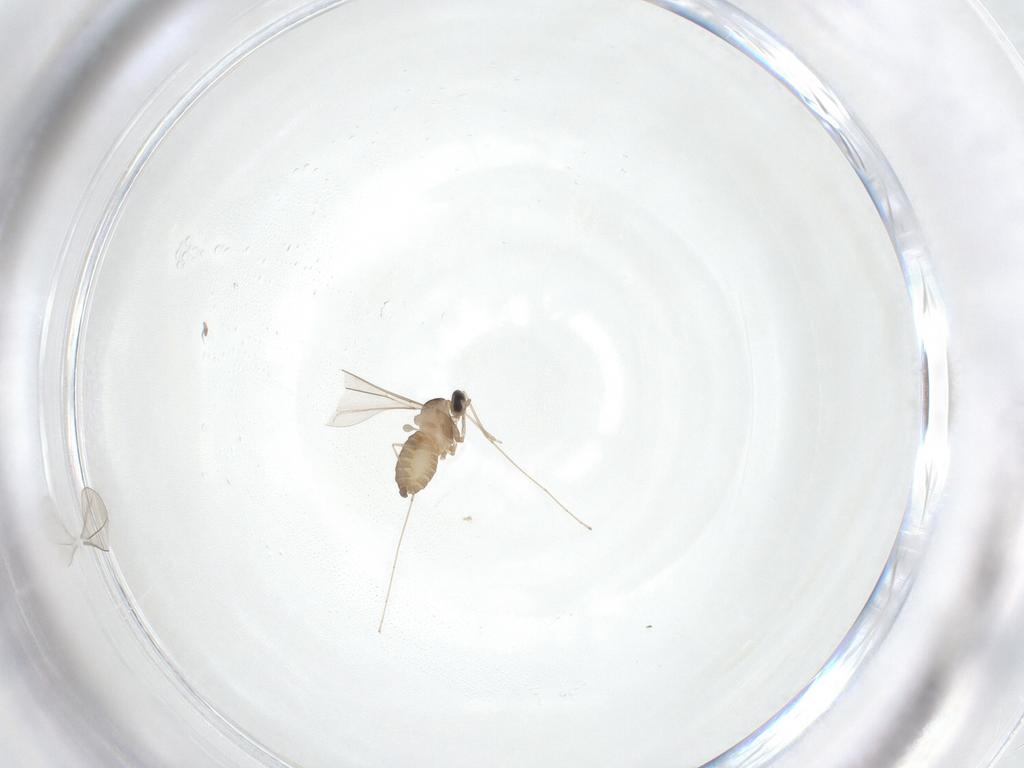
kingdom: Animalia
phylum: Arthropoda
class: Insecta
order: Diptera
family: Cecidomyiidae
